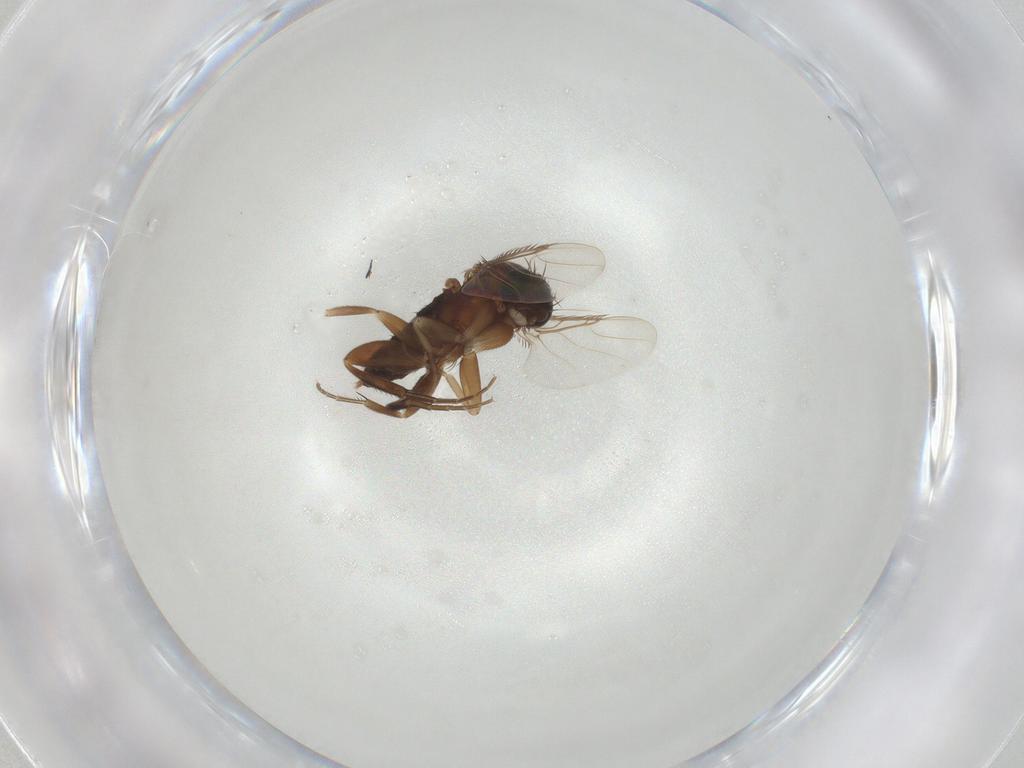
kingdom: Animalia
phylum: Arthropoda
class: Insecta
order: Diptera
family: Phoridae
